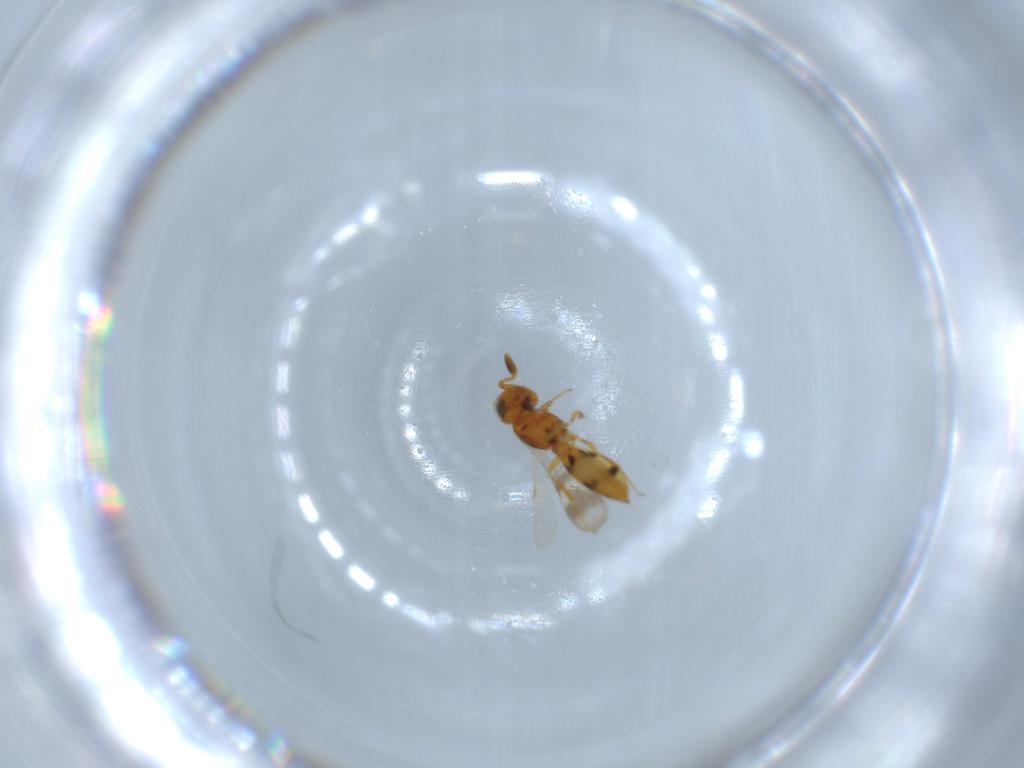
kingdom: Animalia
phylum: Arthropoda
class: Insecta
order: Hymenoptera
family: Scelionidae
